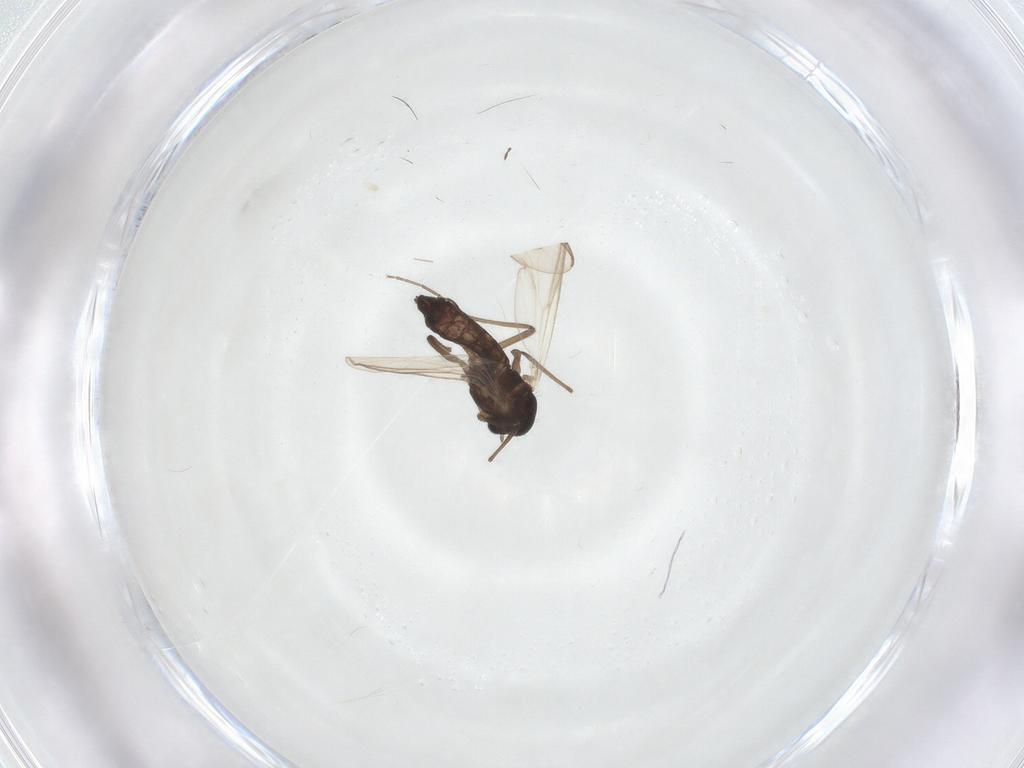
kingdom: Animalia
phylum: Arthropoda
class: Insecta
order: Diptera
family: Chironomidae
